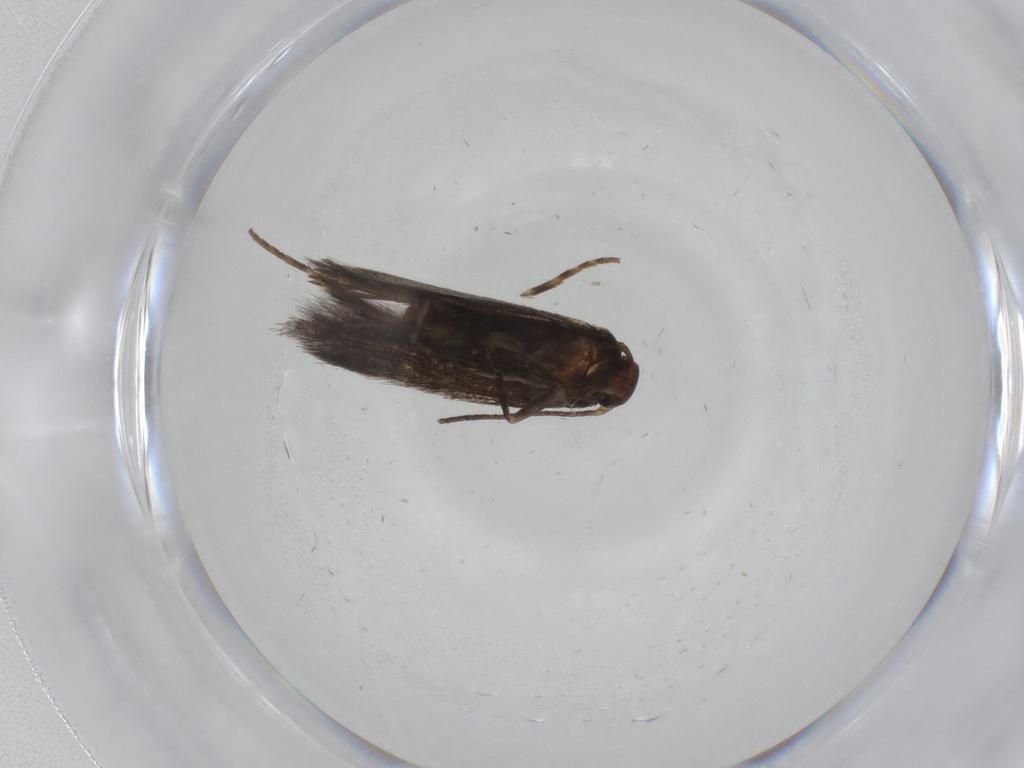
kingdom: Animalia
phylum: Arthropoda
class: Insecta
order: Lepidoptera
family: Elachistidae
